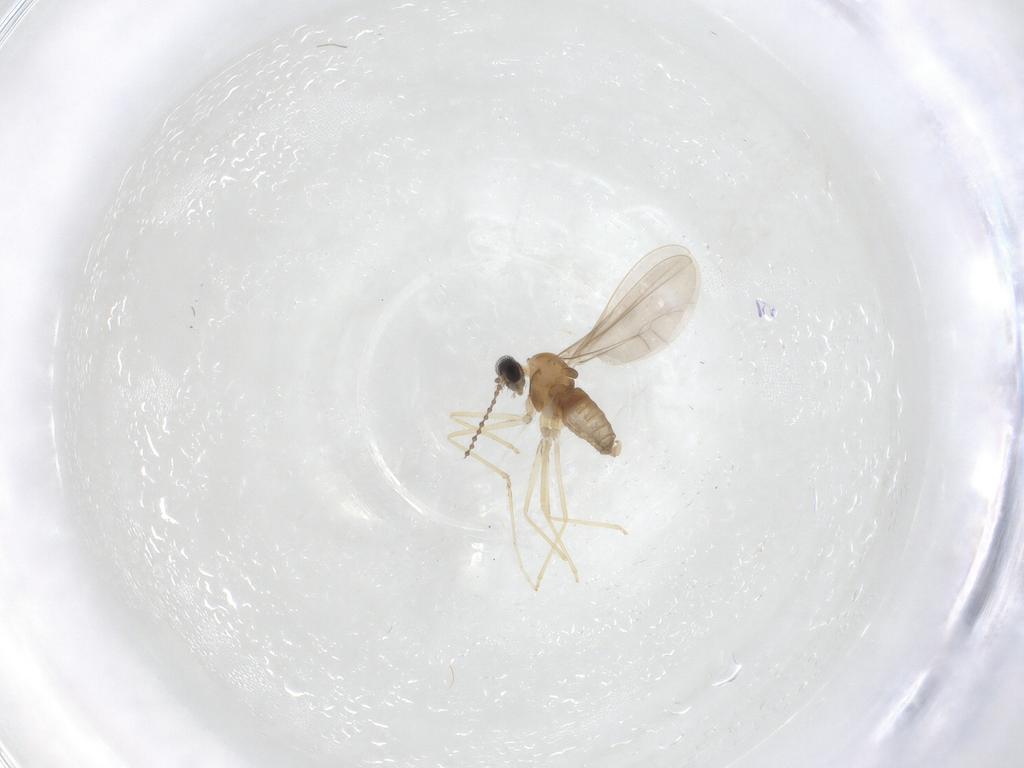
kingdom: Animalia
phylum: Arthropoda
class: Insecta
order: Diptera
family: Cecidomyiidae
